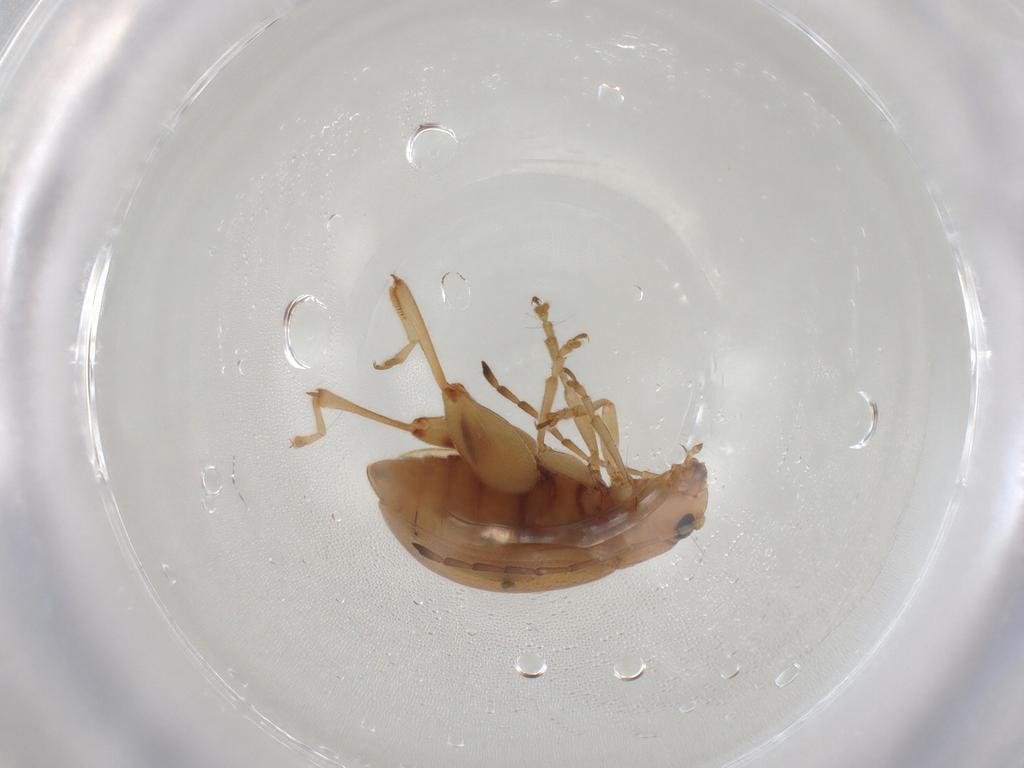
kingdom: Animalia
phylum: Arthropoda
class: Insecta
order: Coleoptera
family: Chrysomelidae
